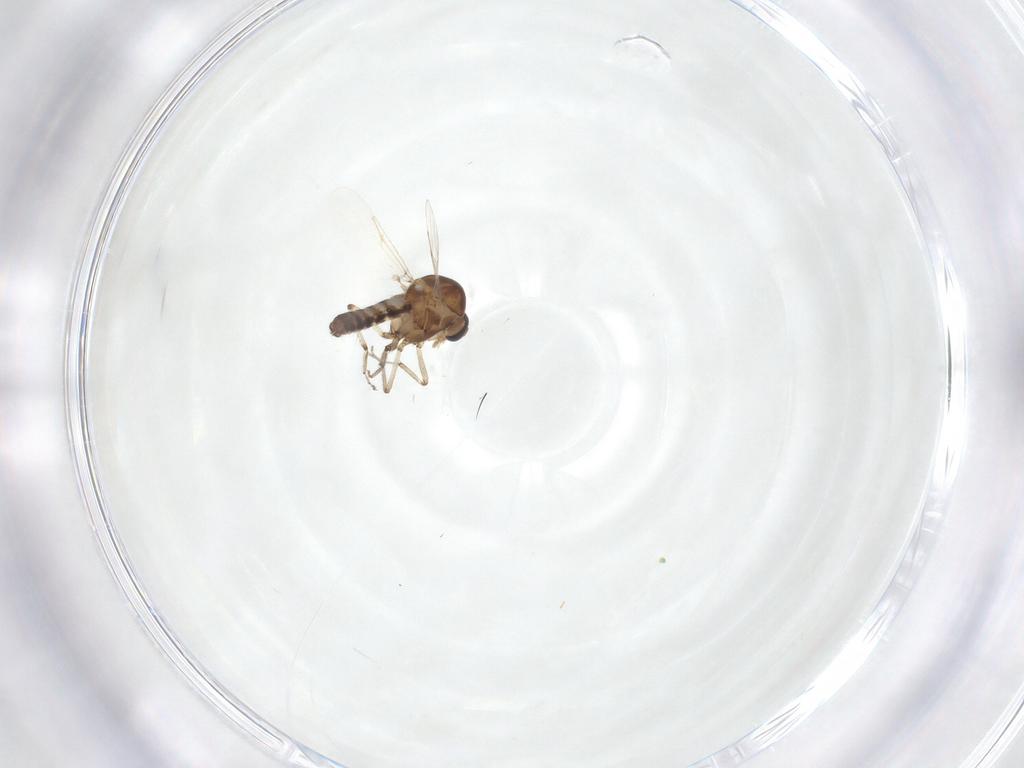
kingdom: Animalia
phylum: Arthropoda
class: Insecta
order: Diptera
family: Ceratopogonidae
